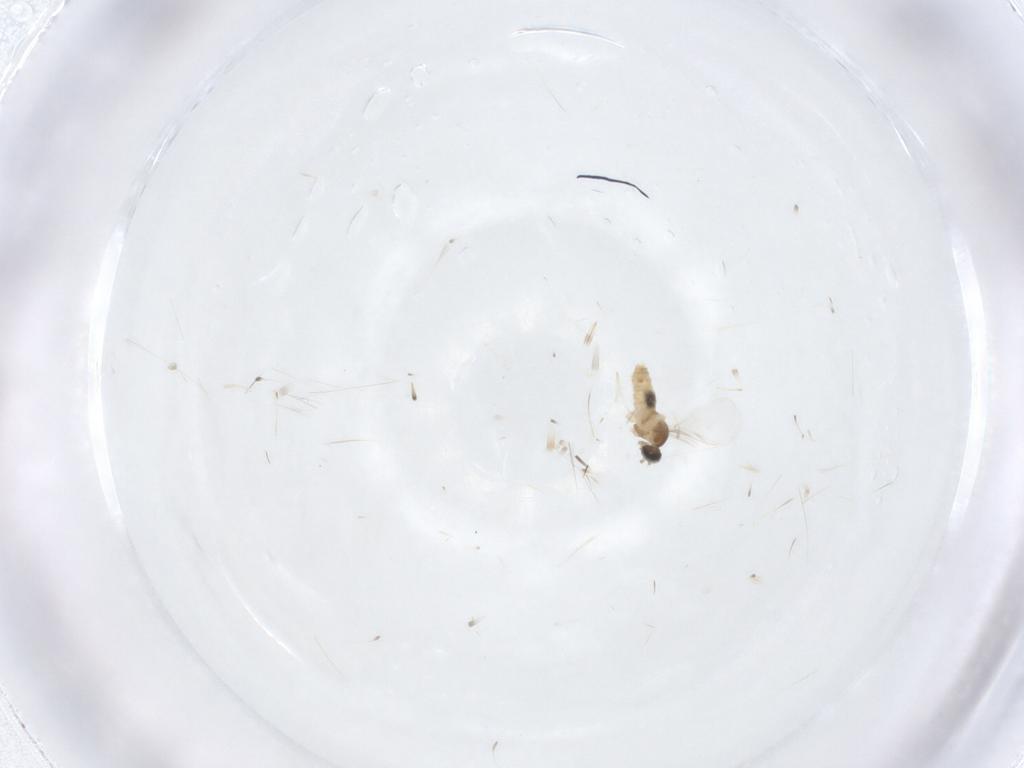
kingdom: Animalia
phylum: Arthropoda
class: Insecta
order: Diptera
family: Cecidomyiidae
